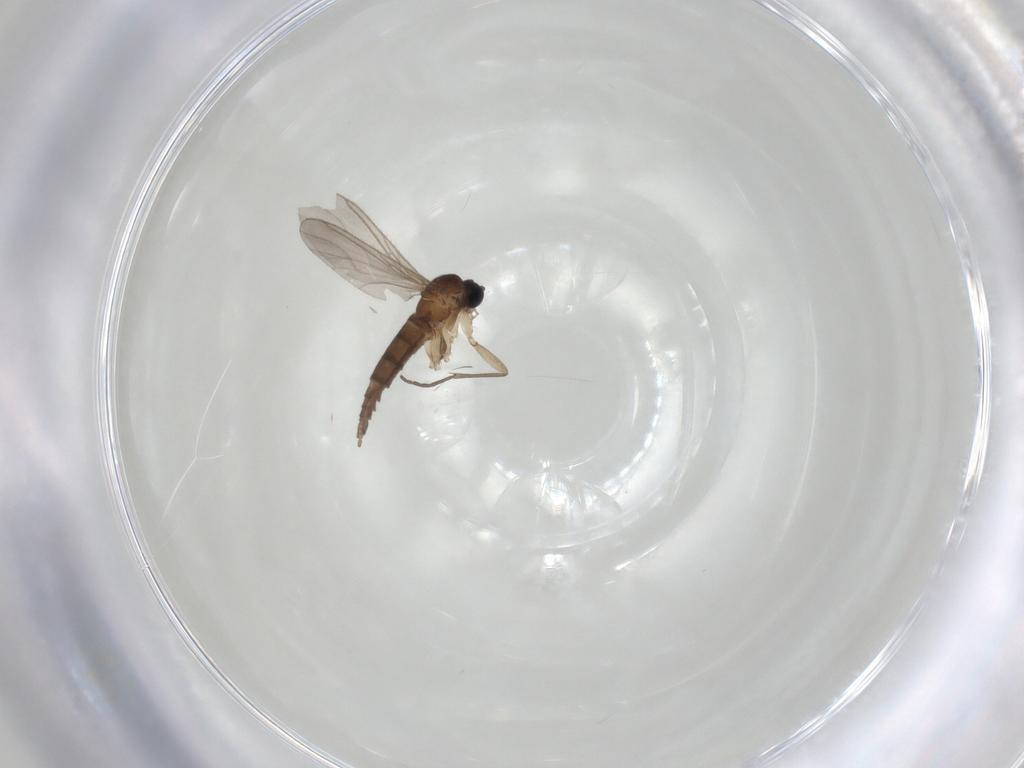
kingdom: Animalia
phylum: Arthropoda
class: Insecta
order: Diptera
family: Sciaridae
